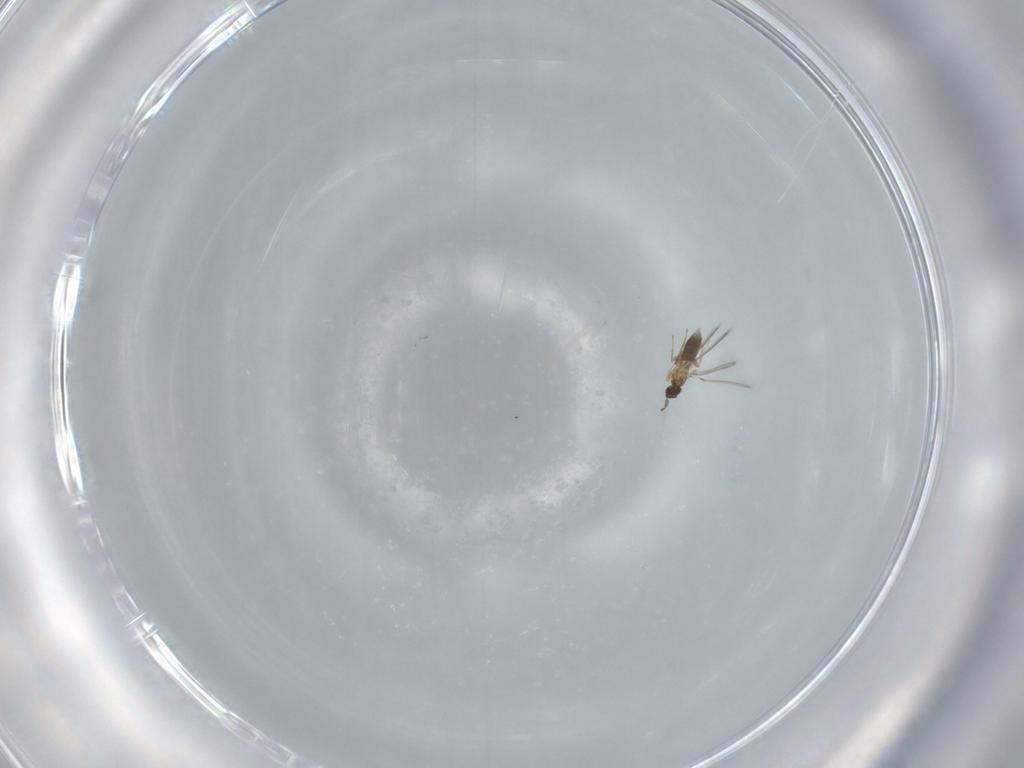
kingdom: Animalia
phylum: Arthropoda
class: Insecta
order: Hymenoptera
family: Mymaridae
